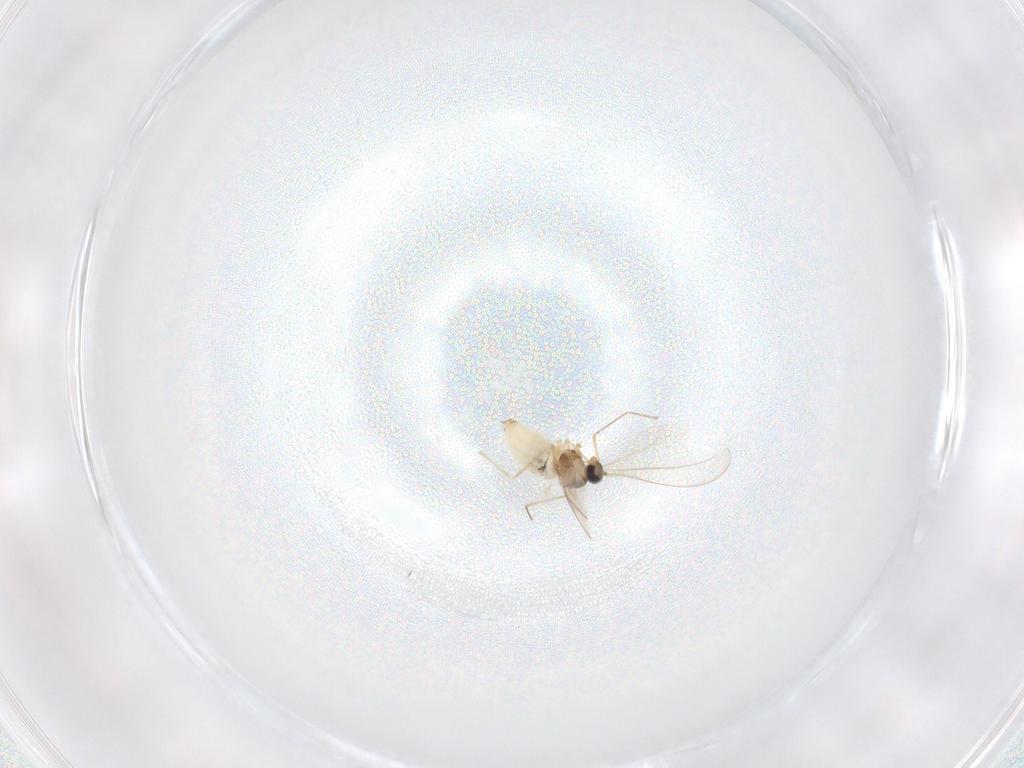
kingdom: Animalia
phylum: Arthropoda
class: Insecta
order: Diptera
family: Cecidomyiidae
